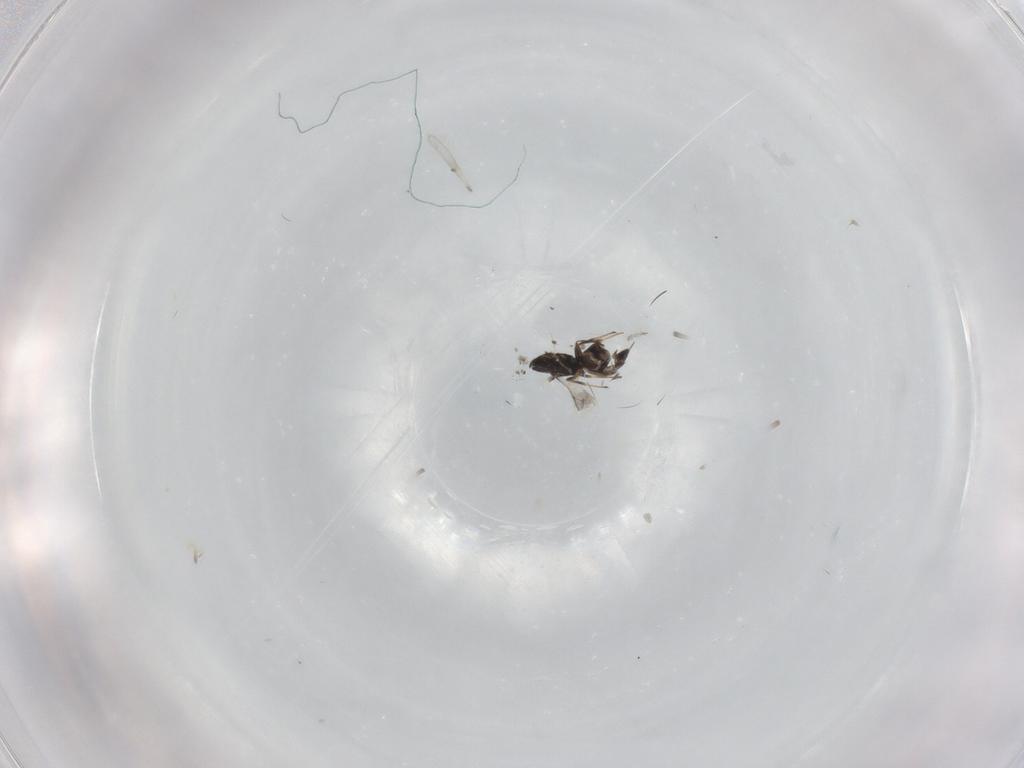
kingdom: Animalia
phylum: Arthropoda
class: Insecta
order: Hymenoptera
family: Scelionidae
